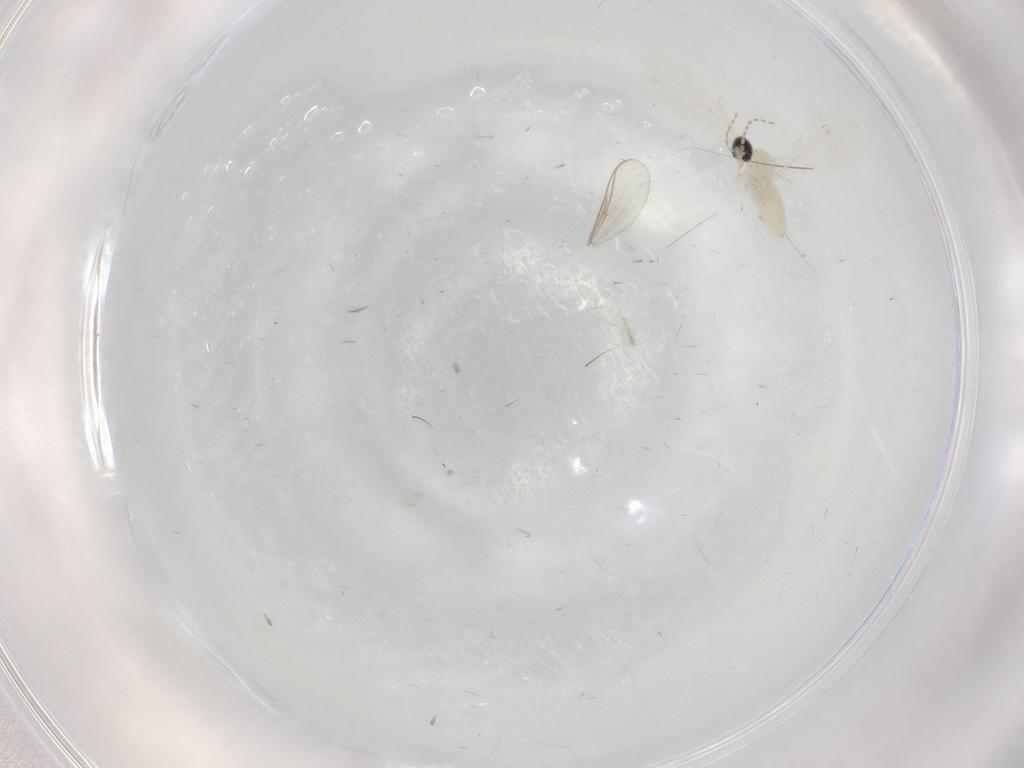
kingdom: Animalia
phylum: Arthropoda
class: Insecta
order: Diptera
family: Cecidomyiidae
